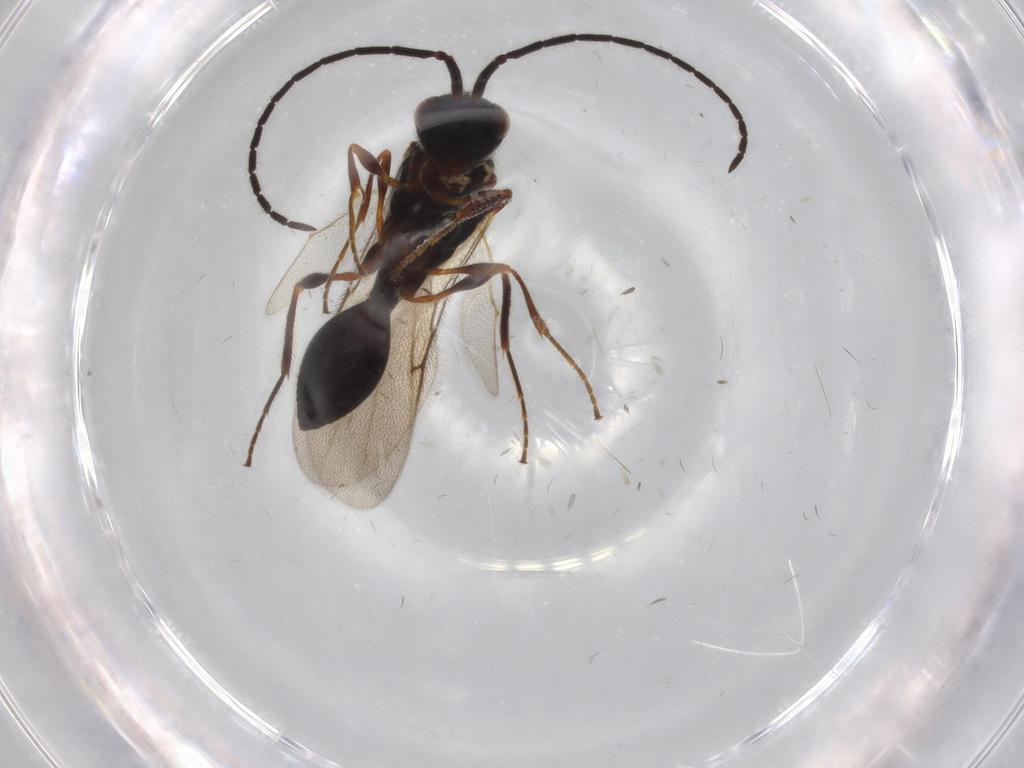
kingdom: Animalia
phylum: Arthropoda
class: Insecta
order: Hymenoptera
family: Diapriidae
